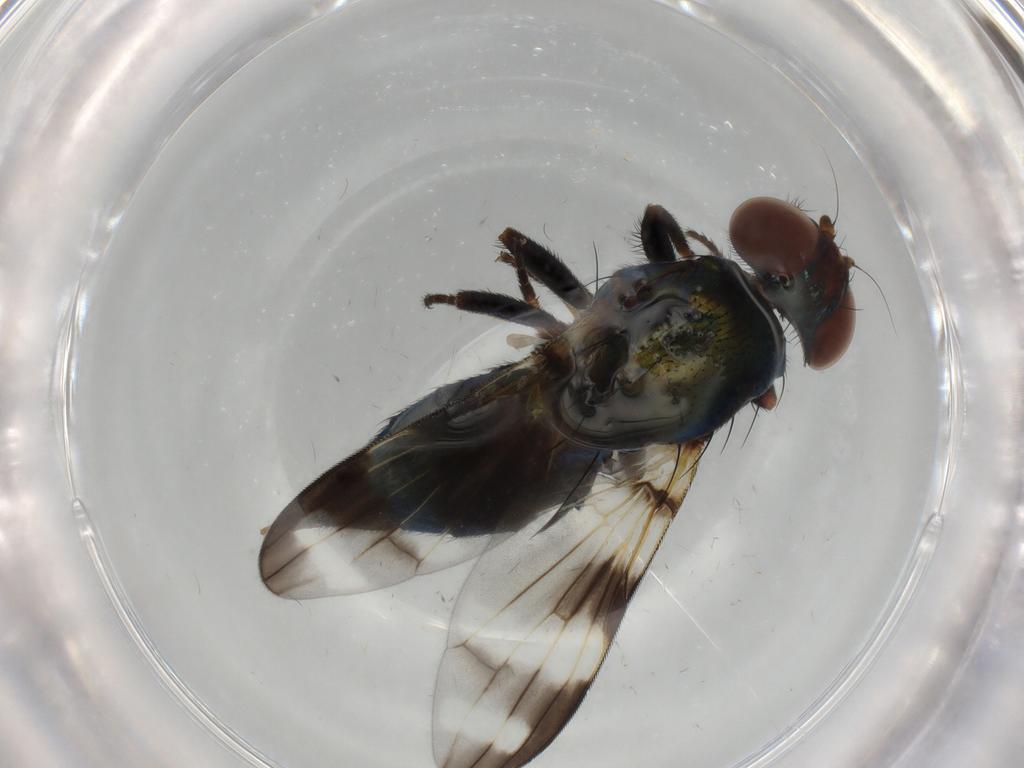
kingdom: Animalia
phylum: Arthropoda
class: Insecta
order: Diptera
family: Ulidiidae
